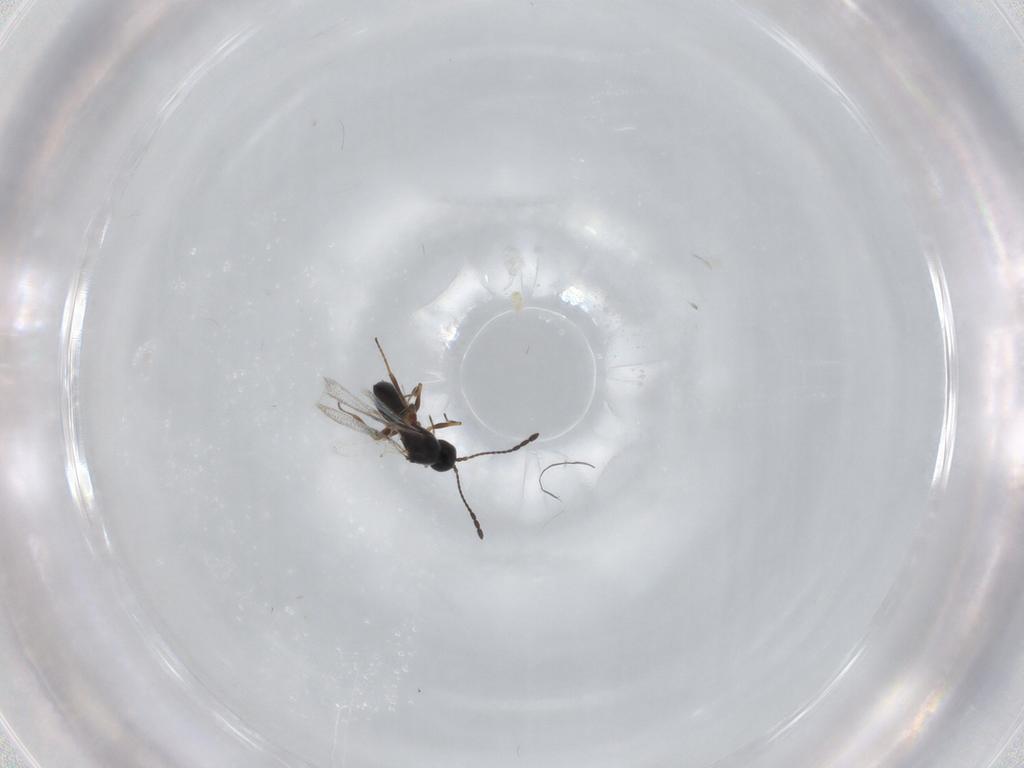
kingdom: Animalia
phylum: Arthropoda
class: Insecta
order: Hymenoptera
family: Figitidae
